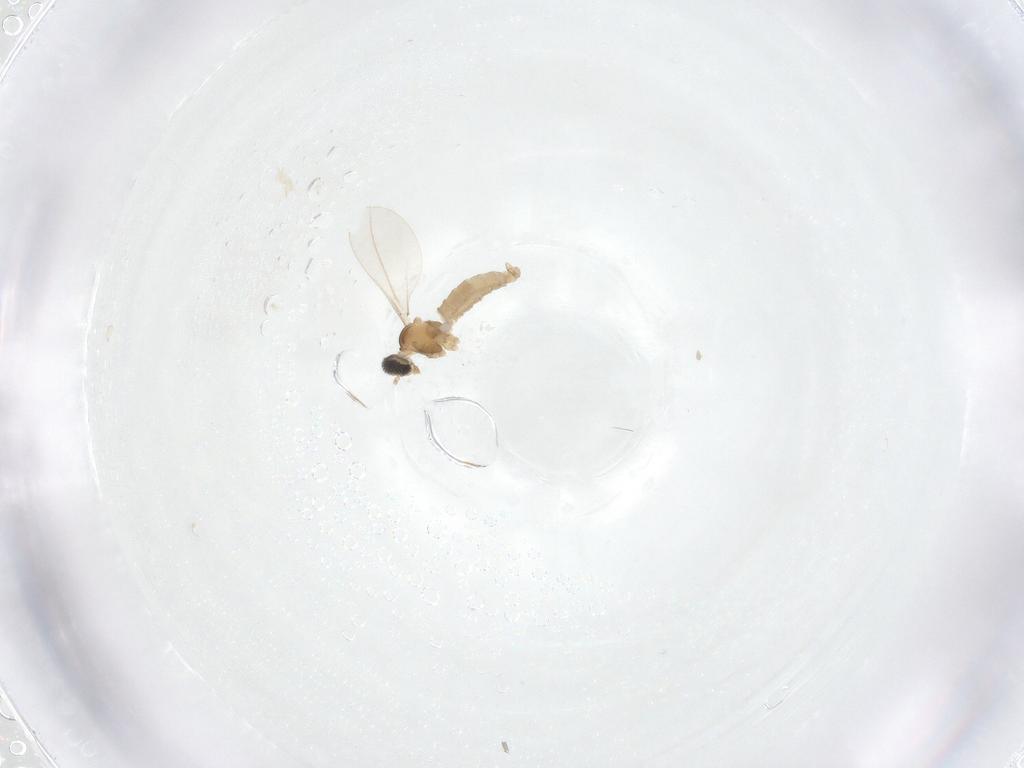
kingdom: Animalia
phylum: Arthropoda
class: Insecta
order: Diptera
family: Cecidomyiidae
